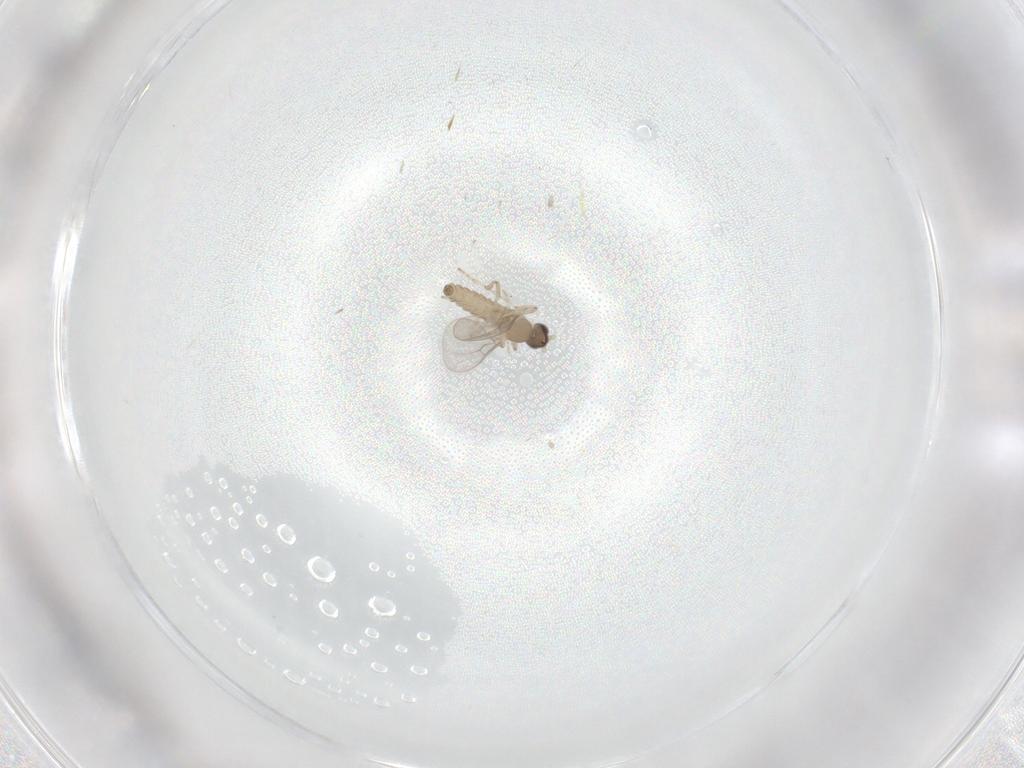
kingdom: Animalia
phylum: Arthropoda
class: Insecta
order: Diptera
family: Cecidomyiidae
